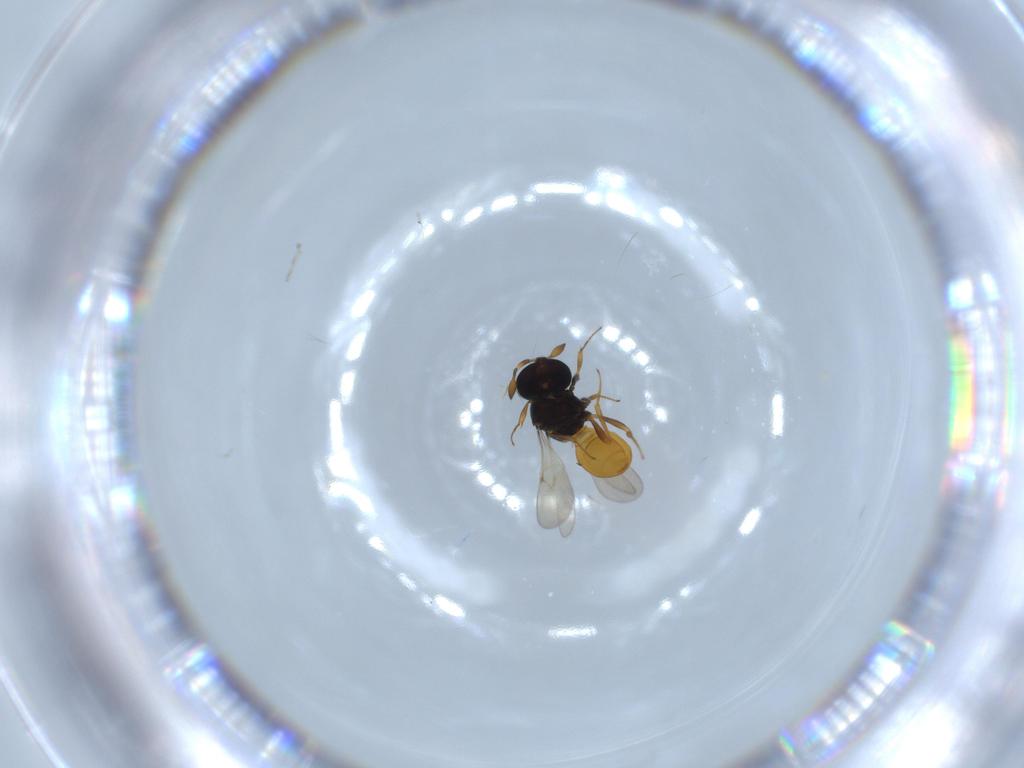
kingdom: Animalia
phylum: Arthropoda
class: Insecta
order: Hymenoptera
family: Scelionidae
